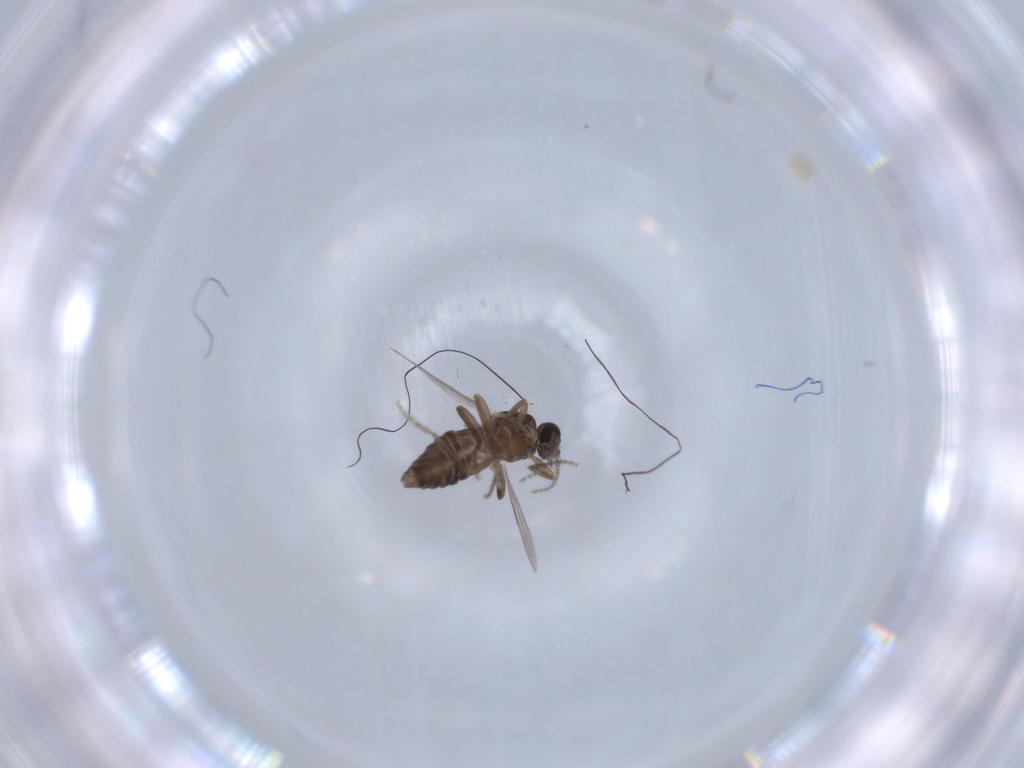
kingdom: Animalia
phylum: Arthropoda
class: Insecta
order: Diptera
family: Ceratopogonidae
